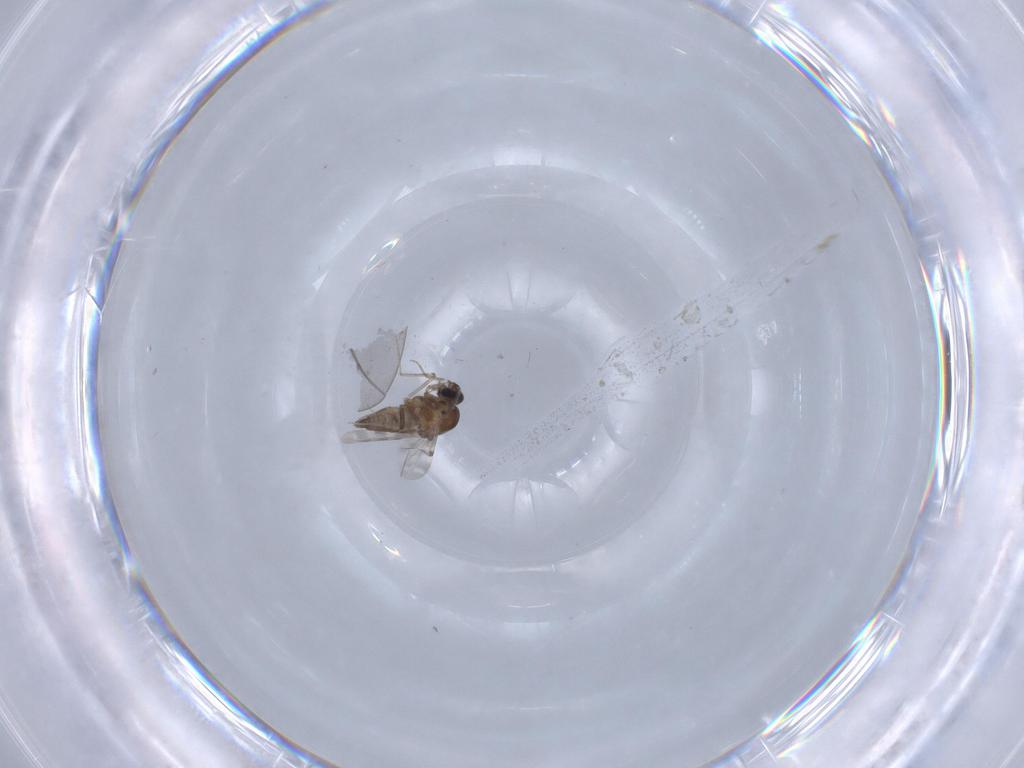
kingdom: Animalia
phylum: Arthropoda
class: Insecta
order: Diptera
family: Ceratopogonidae
